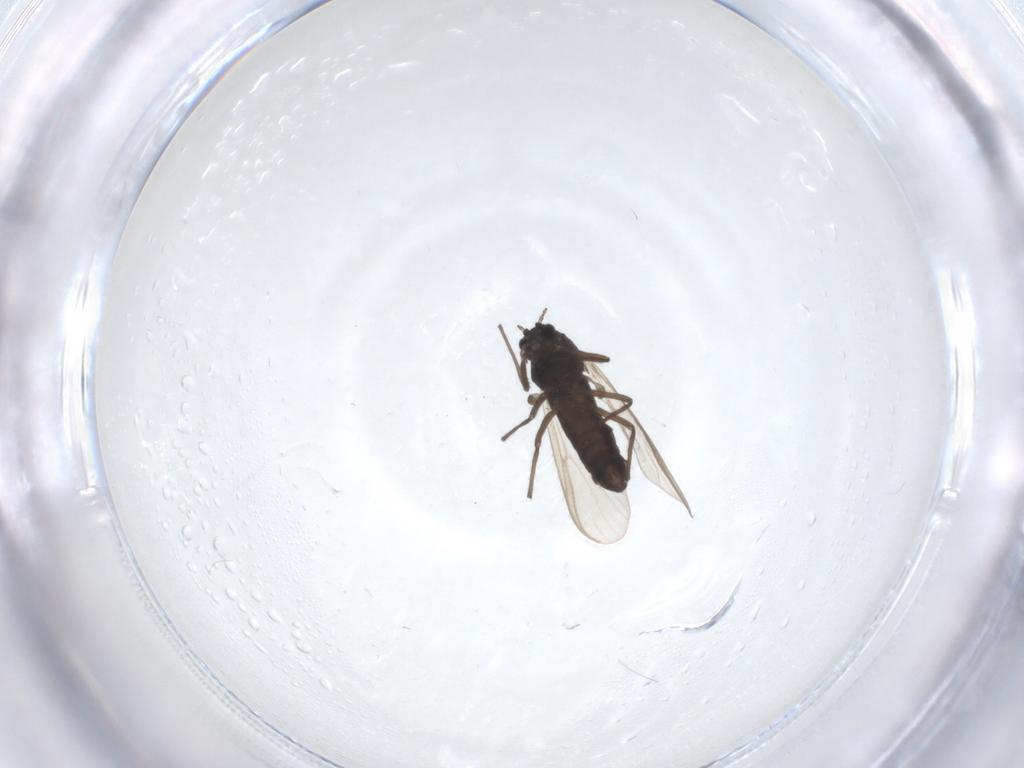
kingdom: Animalia
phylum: Arthropoda
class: Insecta
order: Diptera
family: Chironomidae
